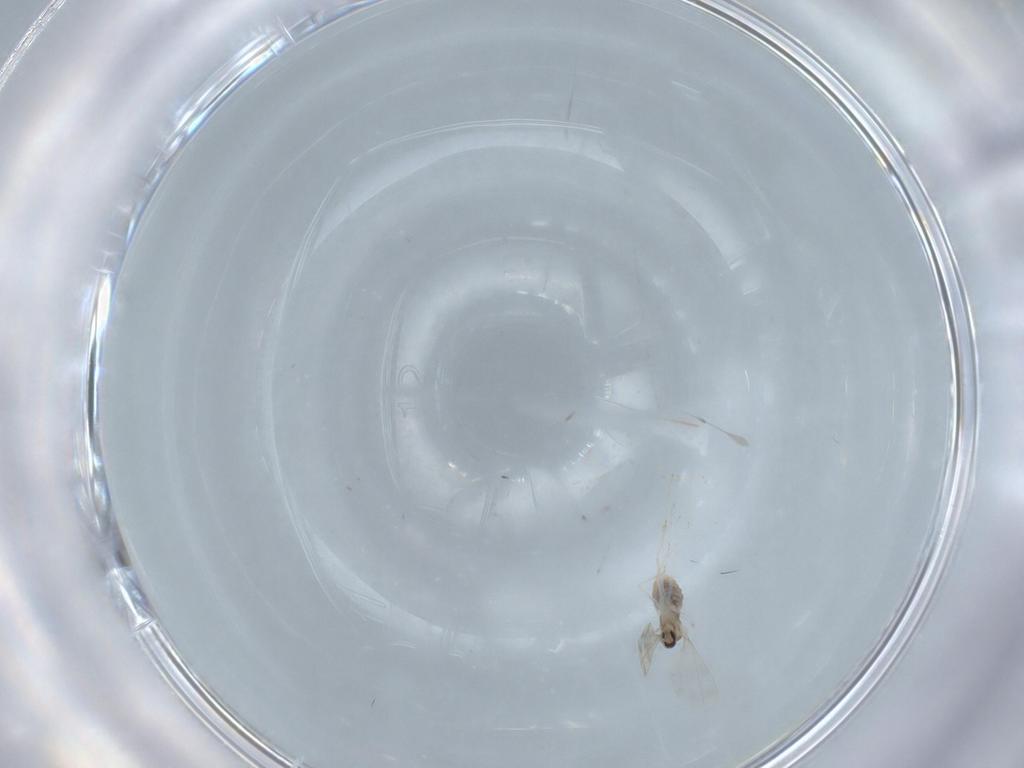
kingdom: Animalia
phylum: Arthropoda
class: Insecta
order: Diptera
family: Cecidomyiidae
